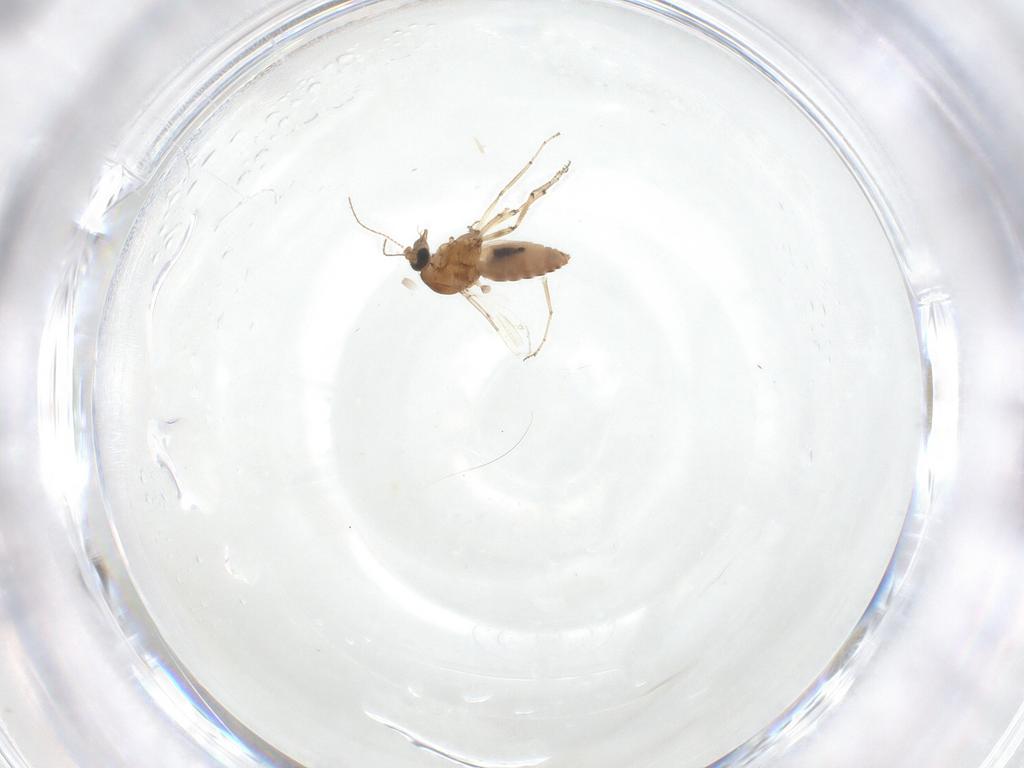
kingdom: Animalia
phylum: Arthropoda
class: Insecta
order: Diptera
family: Ceratopogonidae
